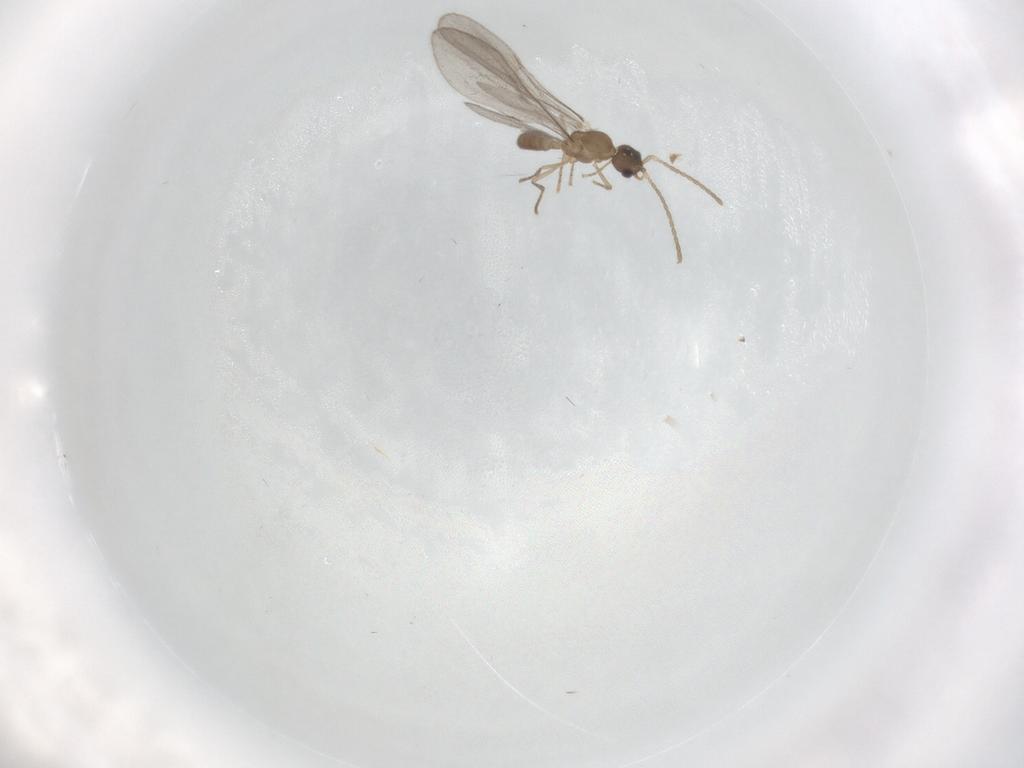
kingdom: Animalia
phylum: Arthropoda
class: Insecta
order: Hymenoptera
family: Formicidae
